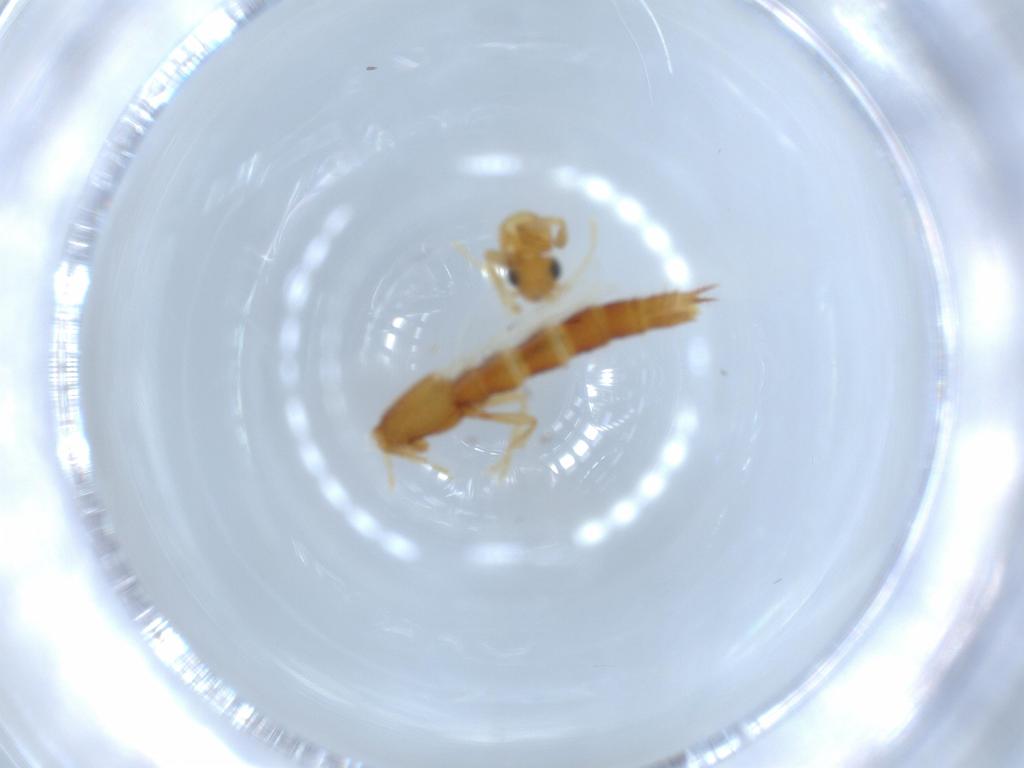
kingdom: Animalia
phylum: Arthropoda
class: Insecta
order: Coleoptera
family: Staphylinidae
